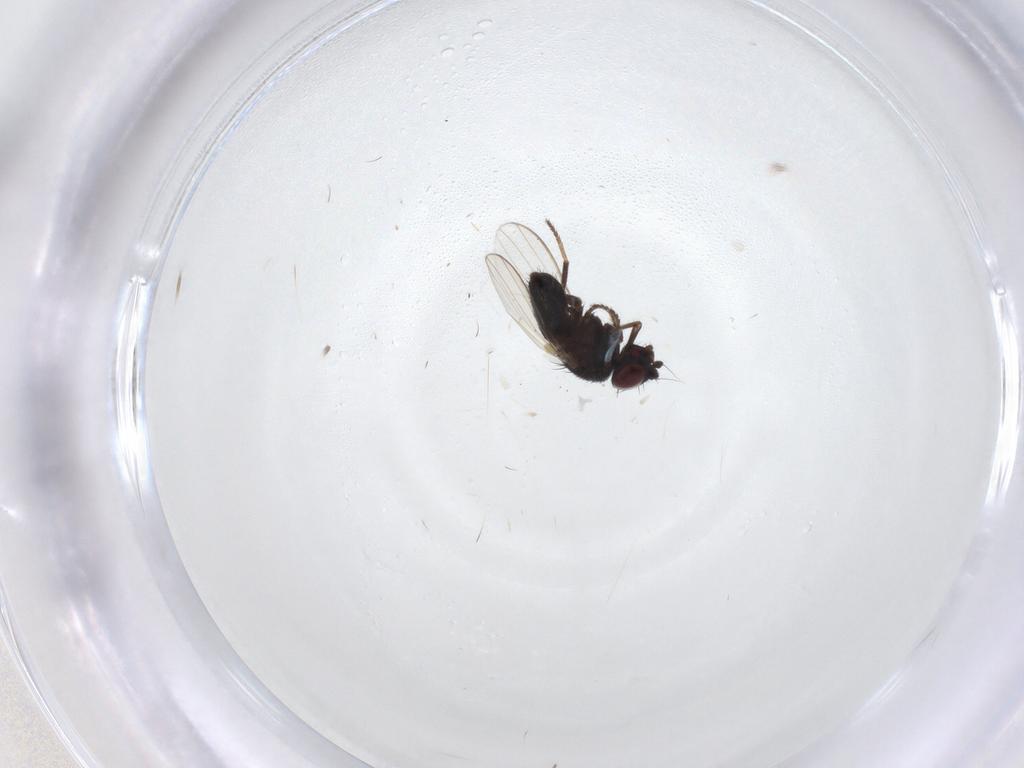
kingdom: Animalia
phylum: Arthropoda
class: Insecta
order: Diptera
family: Milichiidae
